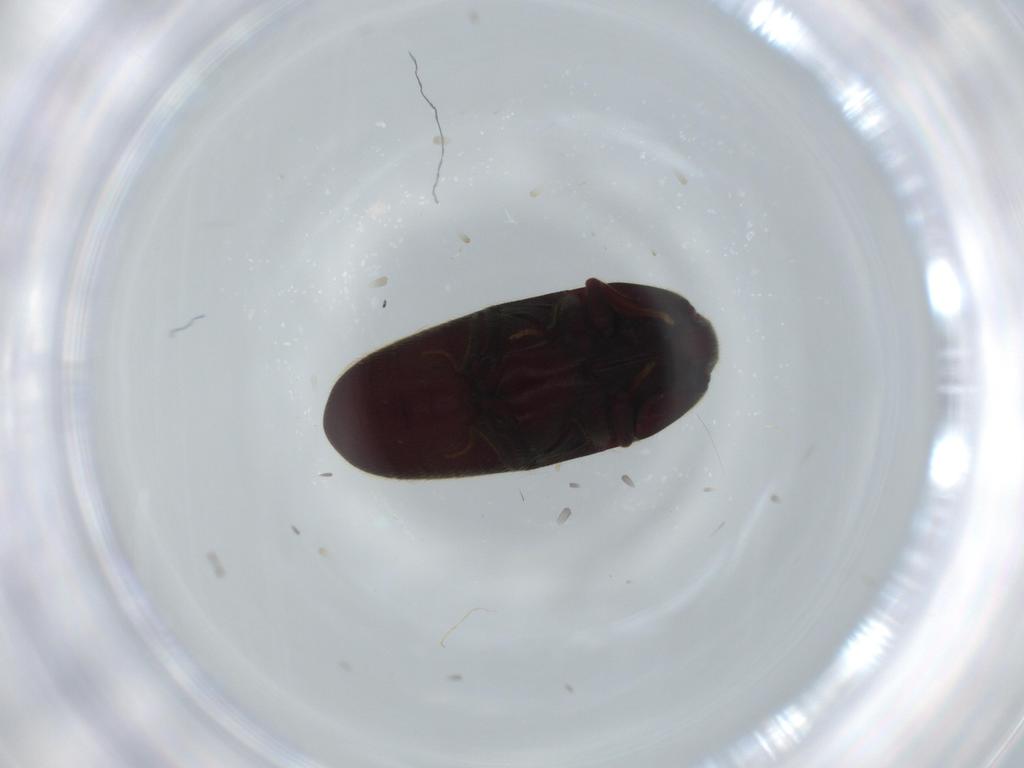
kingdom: Animalia
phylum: Arthropoda
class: Insecta
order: Coleoptera
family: Throscidae
